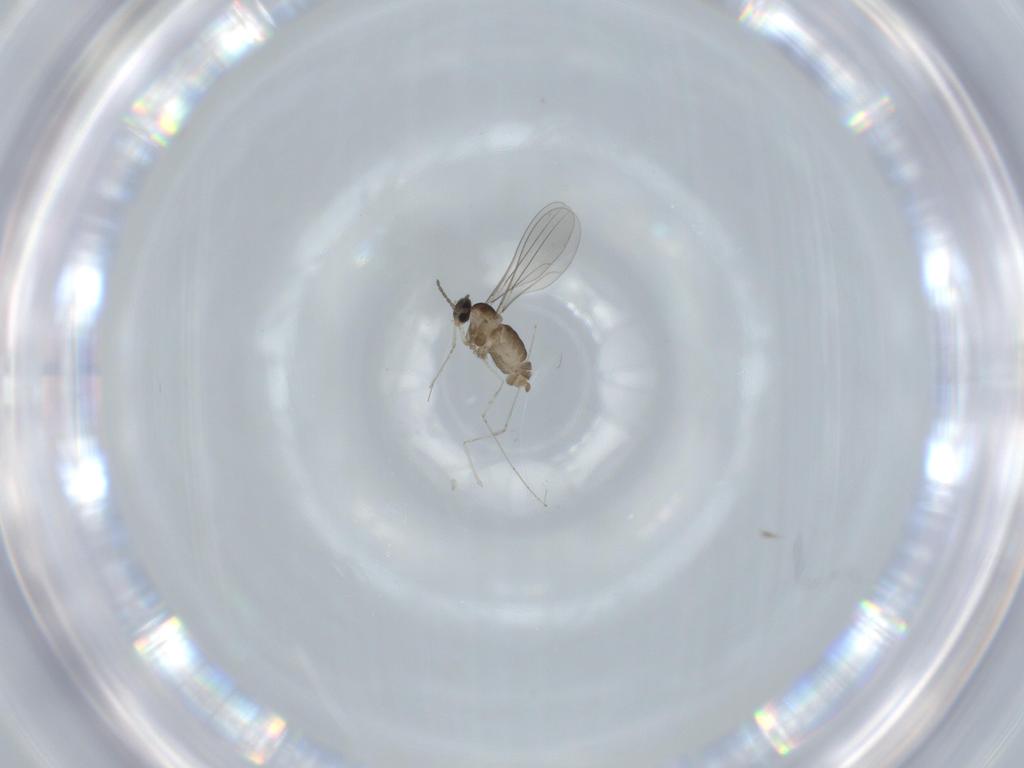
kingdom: Animalia
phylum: Arthropoda
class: Insecta
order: Diptera
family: Cecidomyiidae
